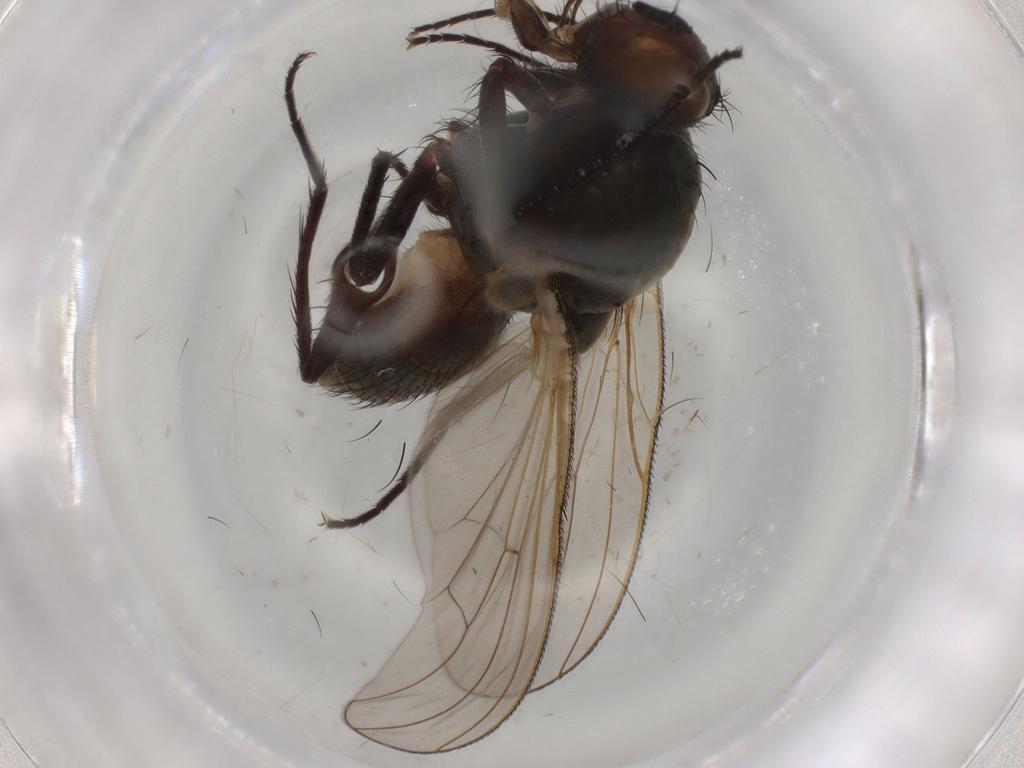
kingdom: Animalia
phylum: Arthropoda
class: Insecta
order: Diptera
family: Anthomyiidae
